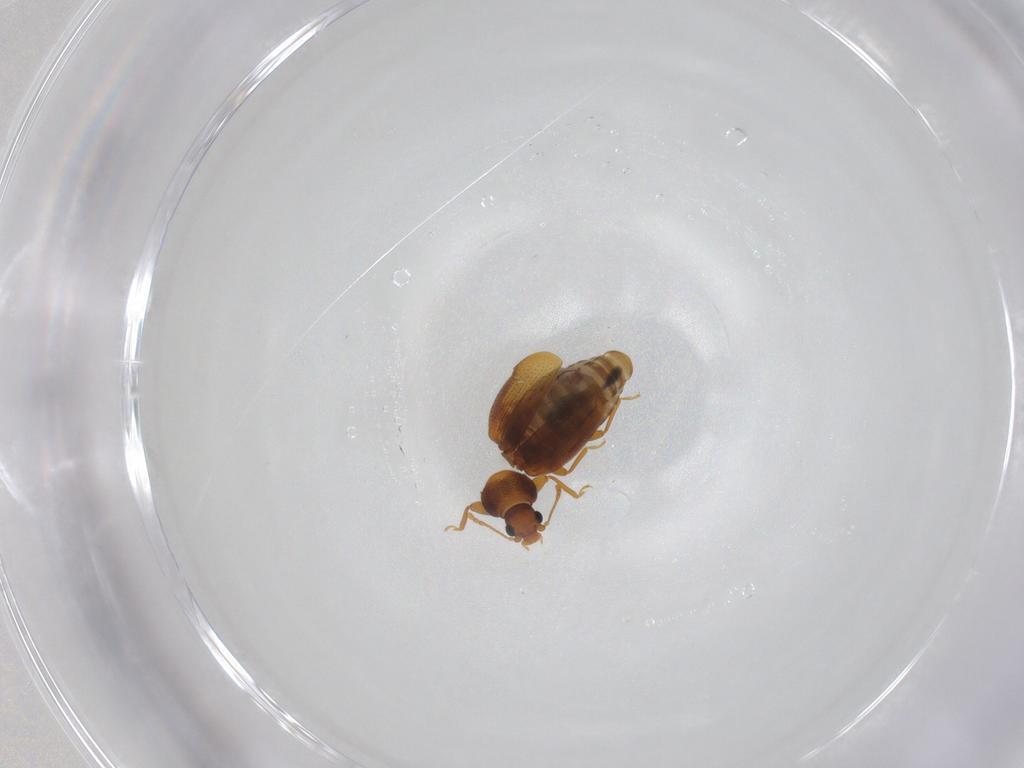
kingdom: Animalia
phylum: Arthropoda
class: Insecta
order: Coleoptera
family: Latridiidae
